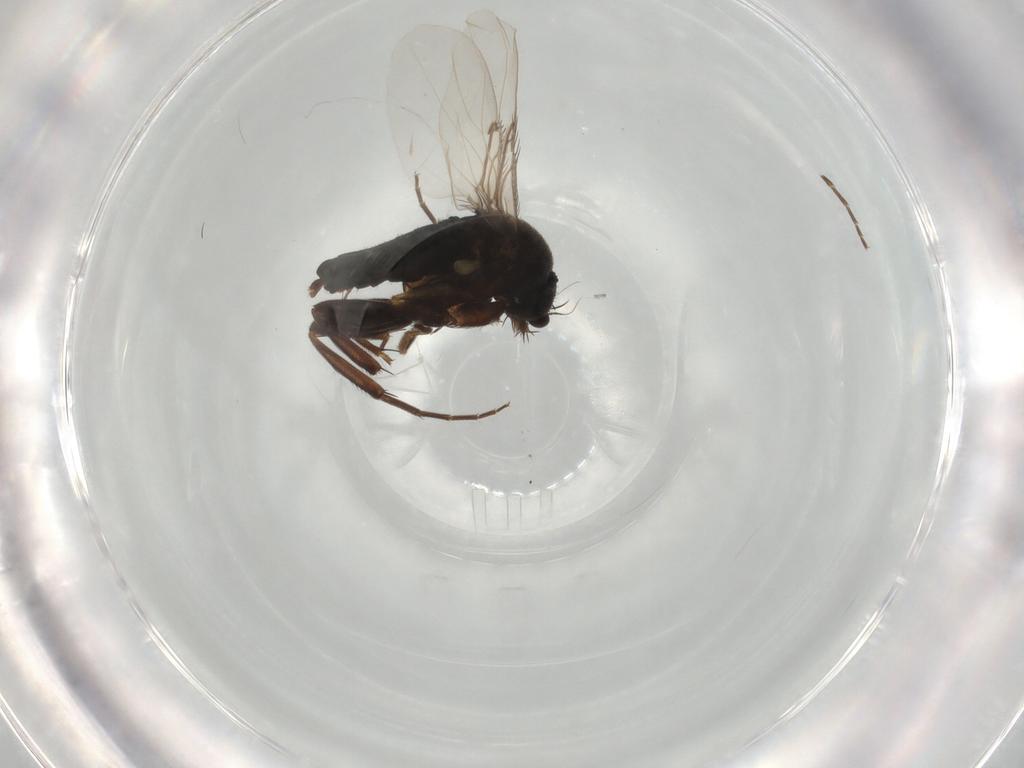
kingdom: Animalia
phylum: Arthropoda
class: Insecta
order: Diptera
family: Phoridae
